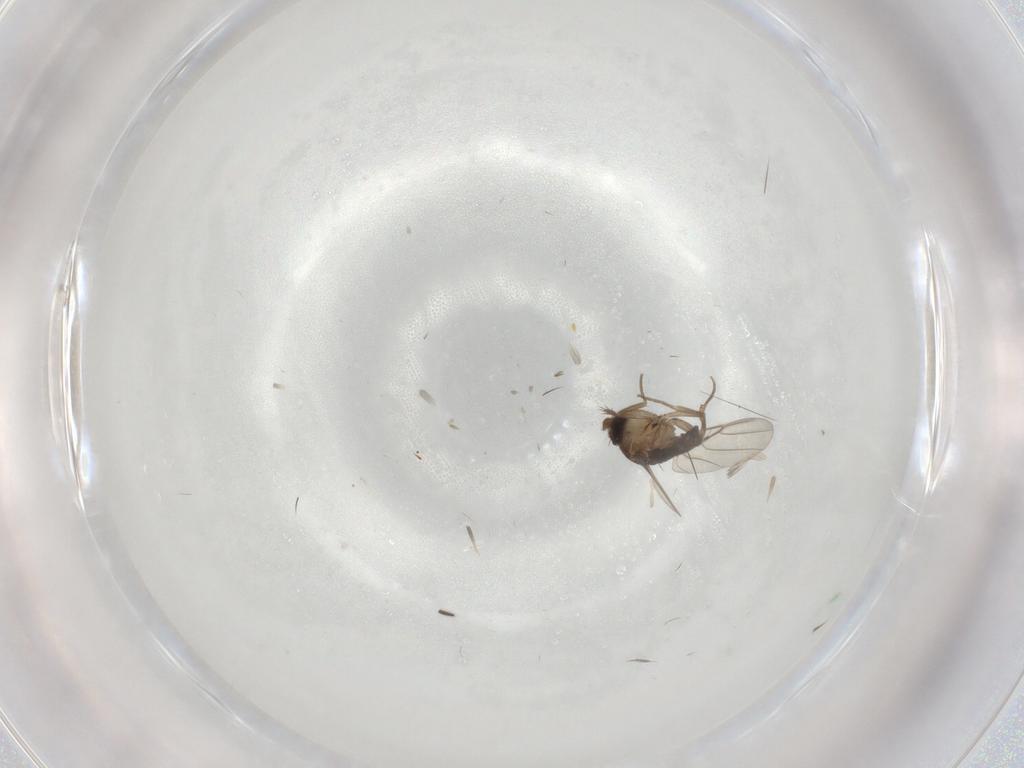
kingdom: Animalia
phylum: Arthropoda
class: Insecta
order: Diptera
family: Phoridae
